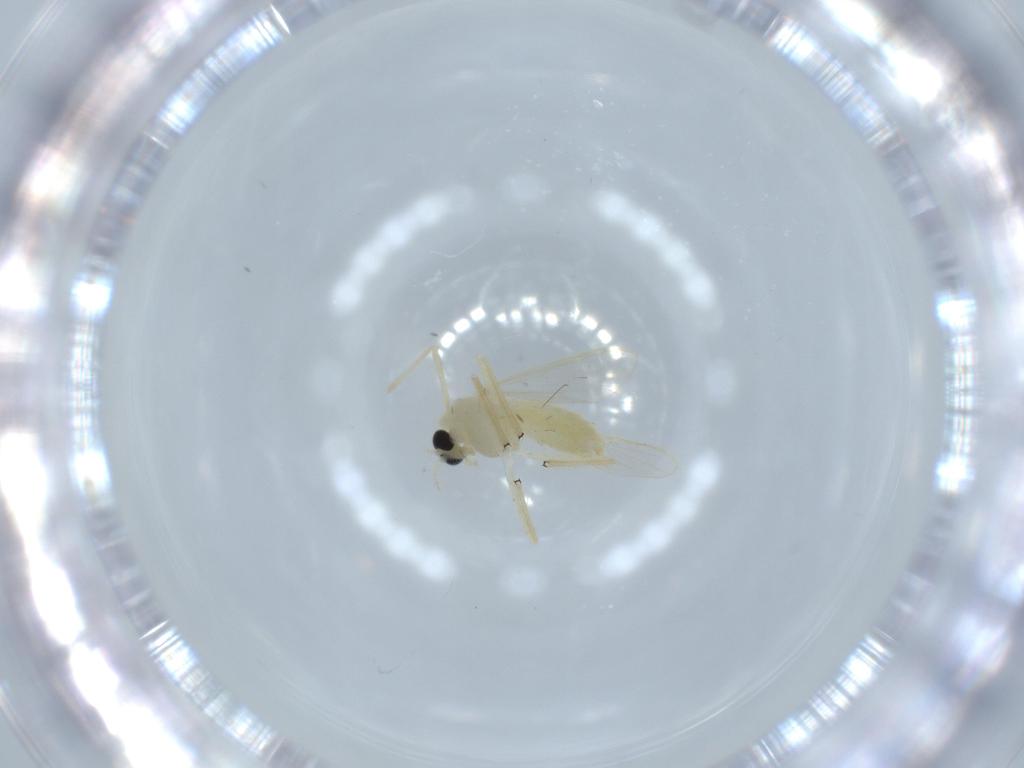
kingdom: Animalia
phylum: Arthropoda
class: Insecta
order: Diptera
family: Chironomidae
